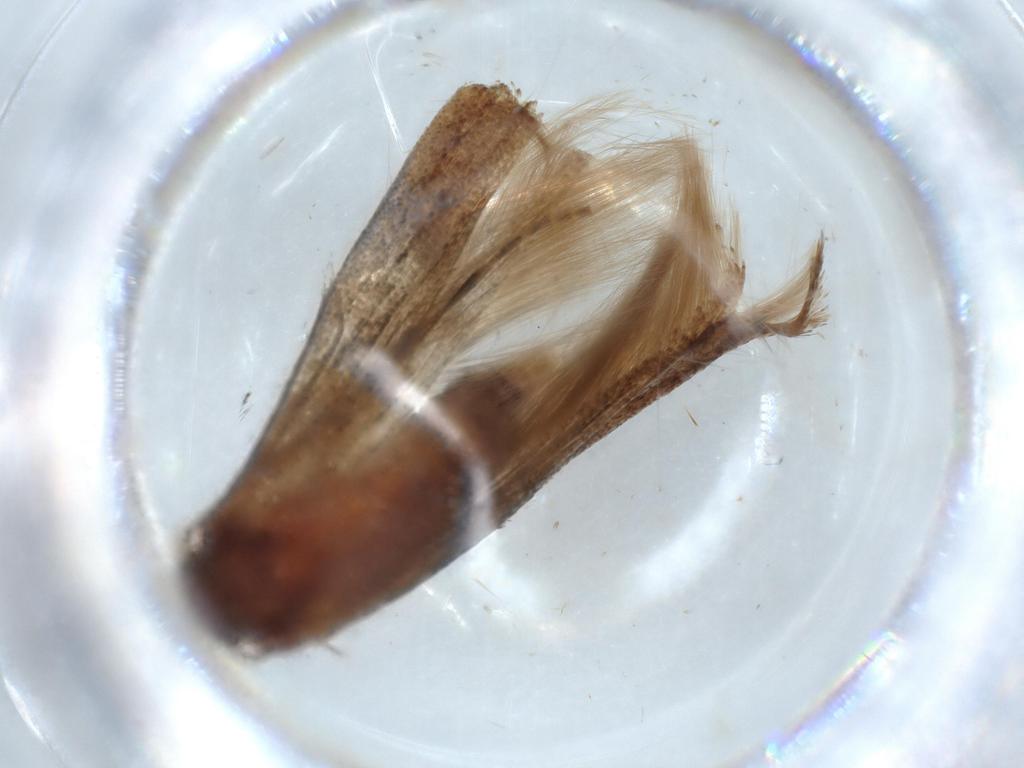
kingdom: Animalia
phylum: Arthropoda
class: Insecta
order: Lepidoptera
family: Stathmopodidae
